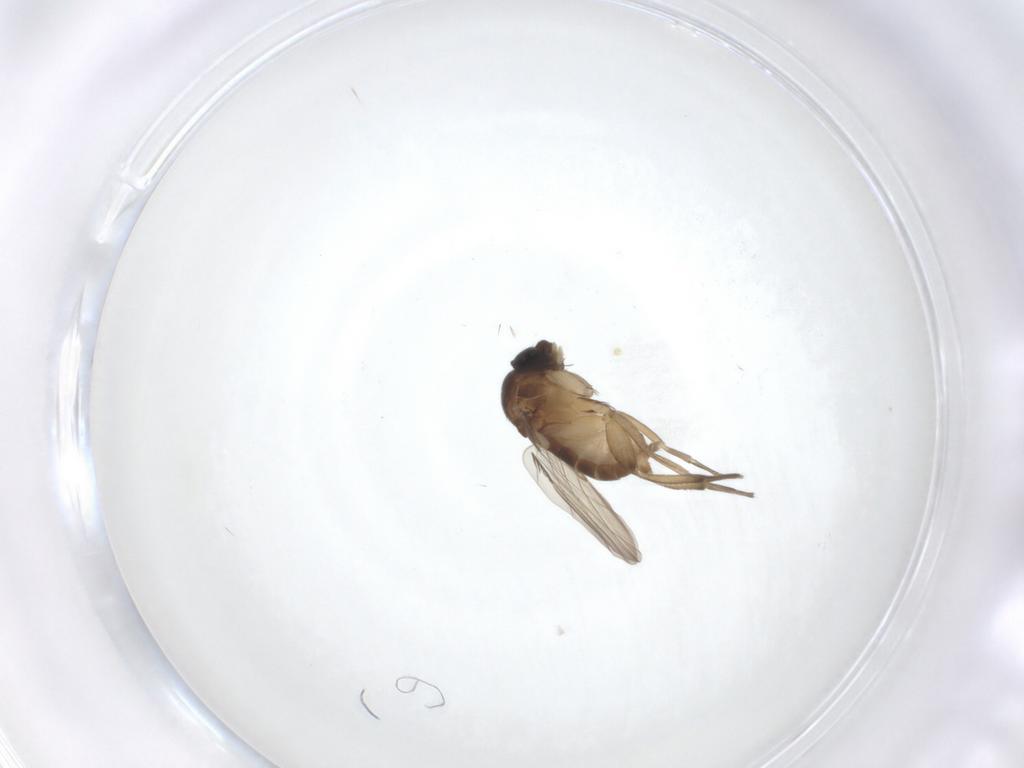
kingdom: Animalia
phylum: Arthropoda
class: Insecta
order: Diptera
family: Phoridae
